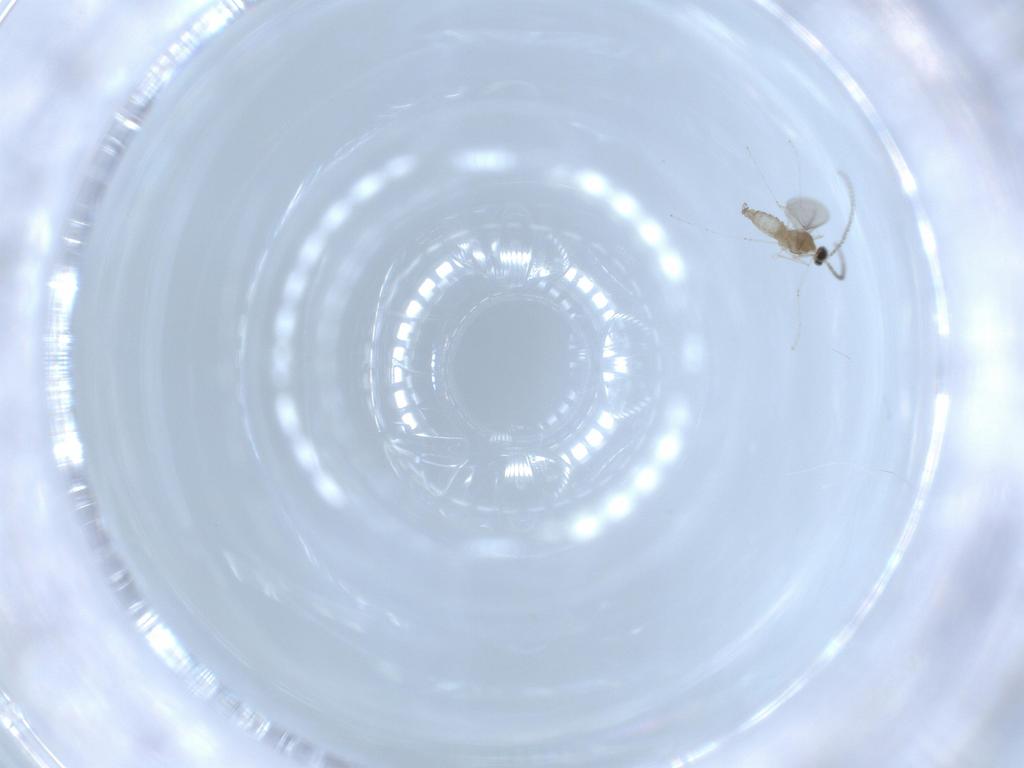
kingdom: Animalia
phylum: Arthropoda
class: Insecta
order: Diptera
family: Cecidomyiidae
